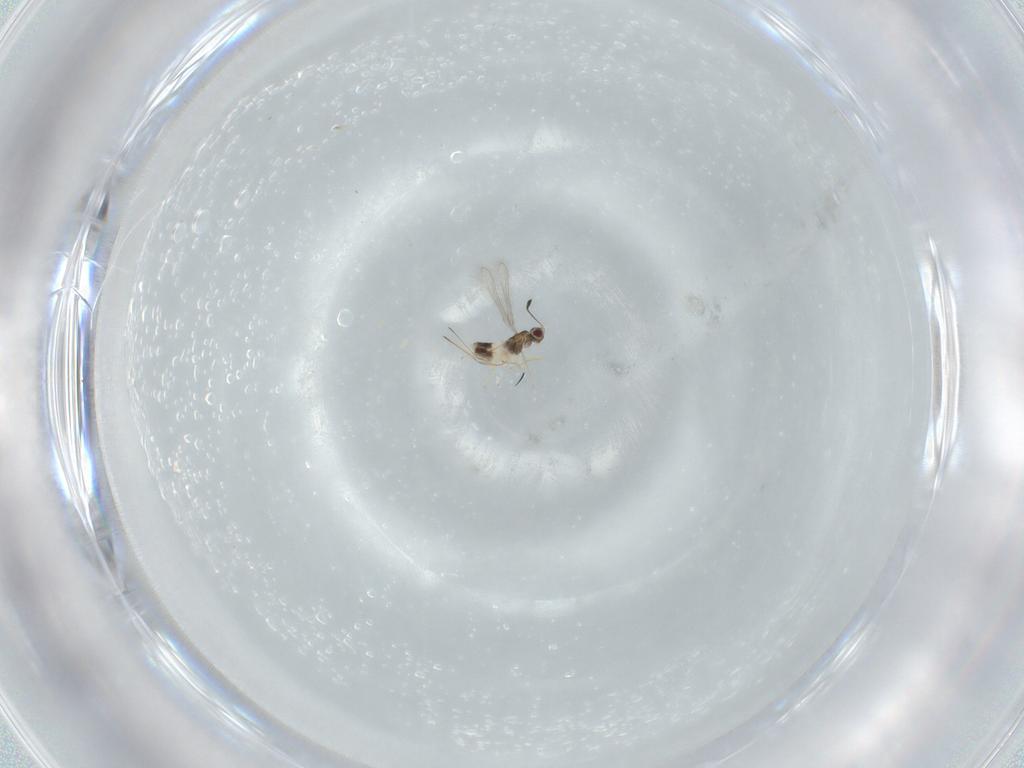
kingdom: Animalia
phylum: Arthropoda
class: Insecta
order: Hymenoptera
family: Mymaridae
